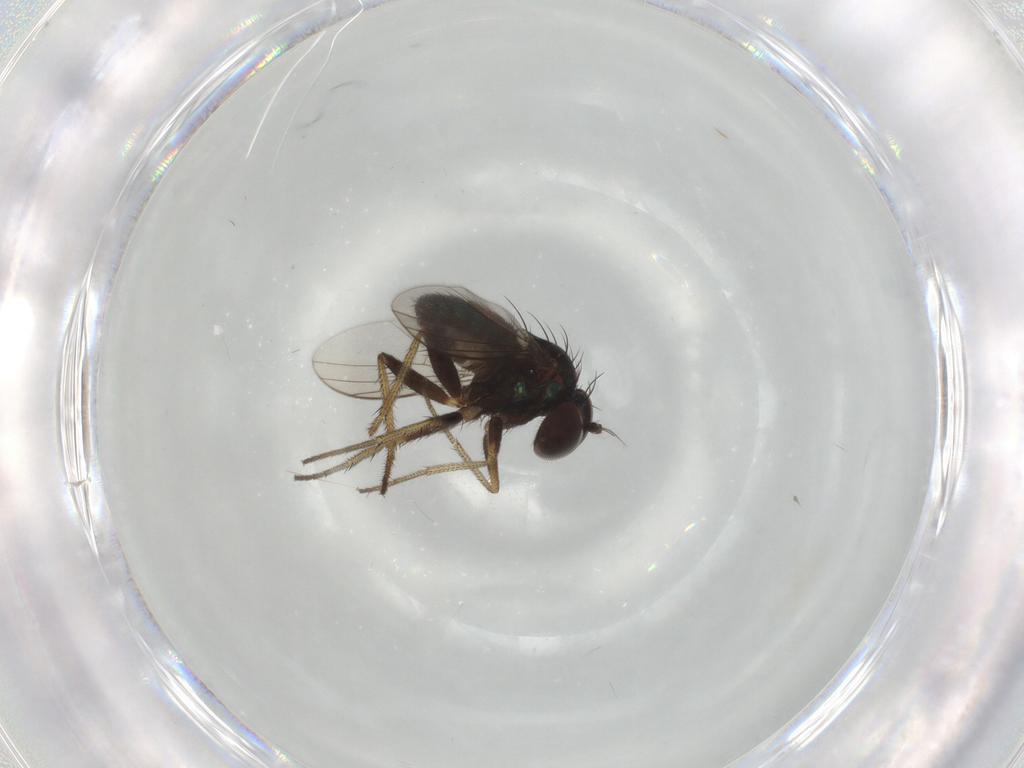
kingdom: Animalia
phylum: Arthropoda
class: Insecta
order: Diptera
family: Dolichopodidae
